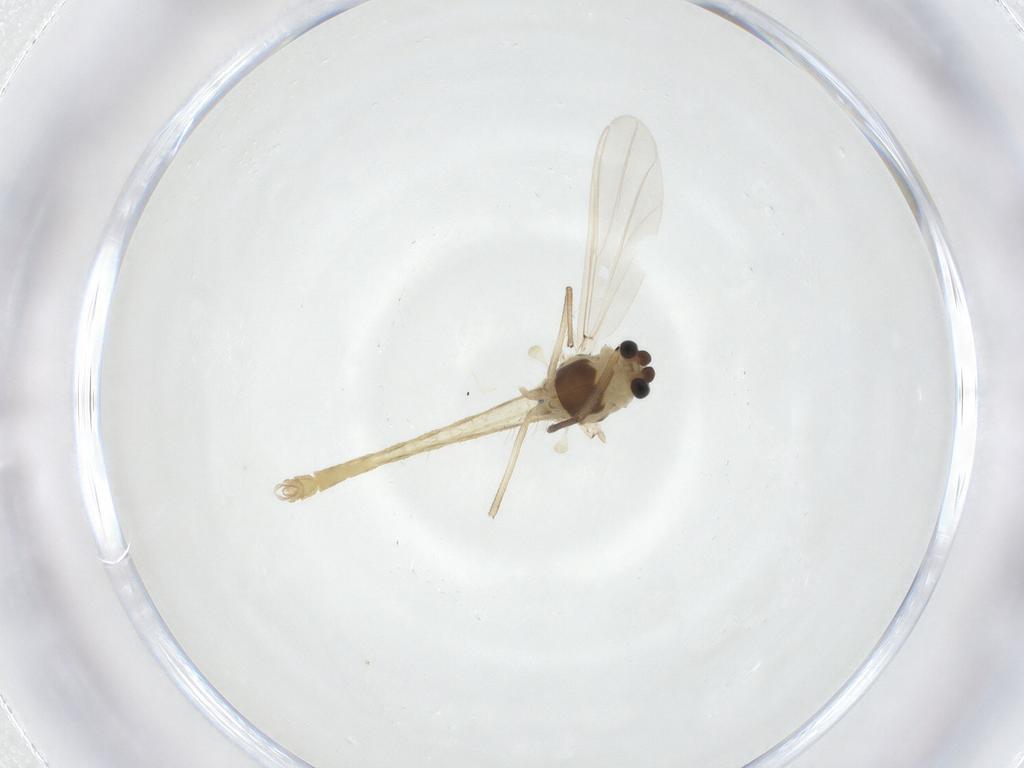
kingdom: Animalia
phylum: Arthropoda
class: Insecta
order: Diptera
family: Chironomidae
